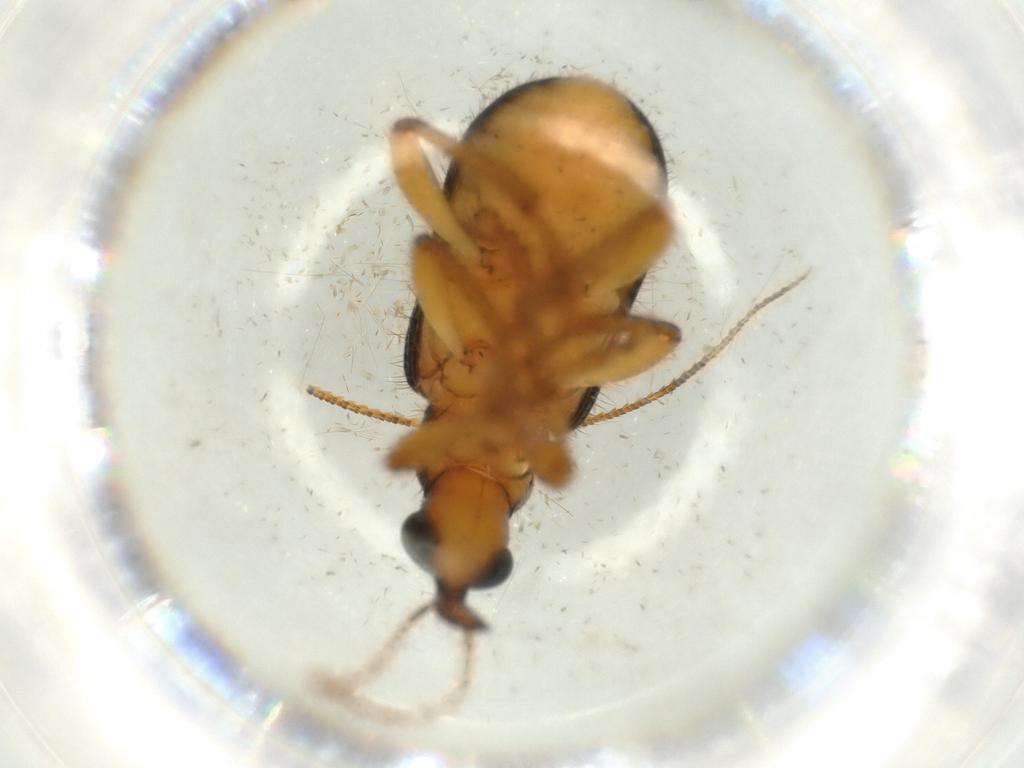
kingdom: Animalia
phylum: Arthropoda
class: Insecta
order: Coleoptera
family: Attelabidae
